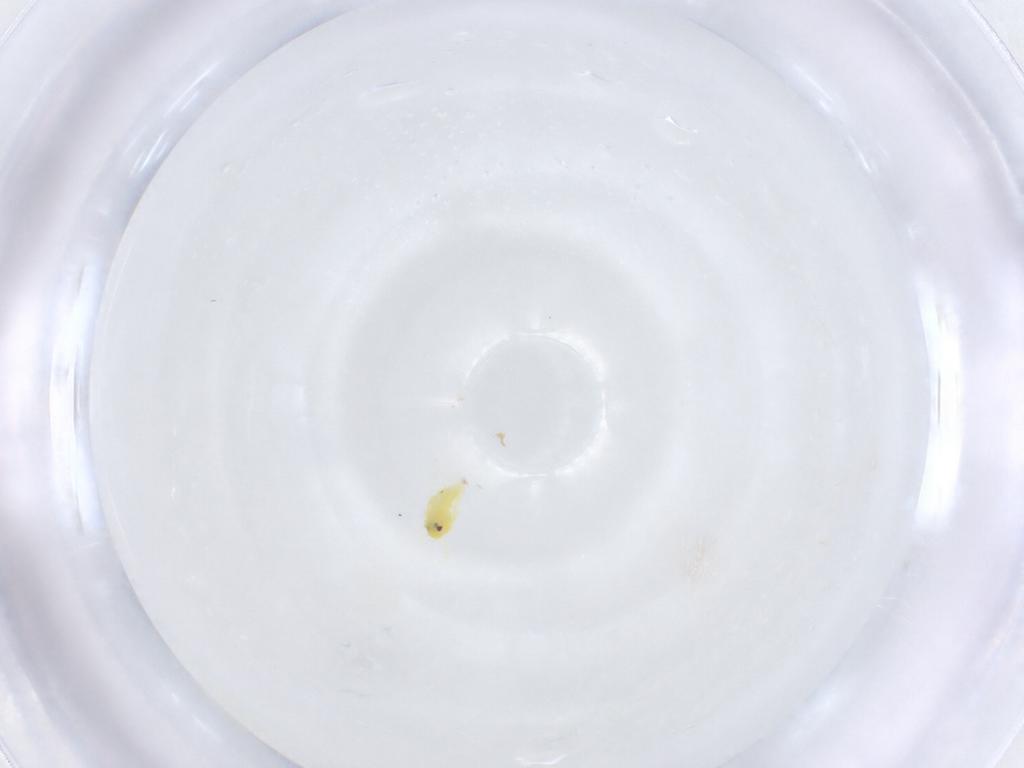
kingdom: Animalia
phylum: Arthropoda
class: Insecta
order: Hemiptera
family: Aleyrodidae
